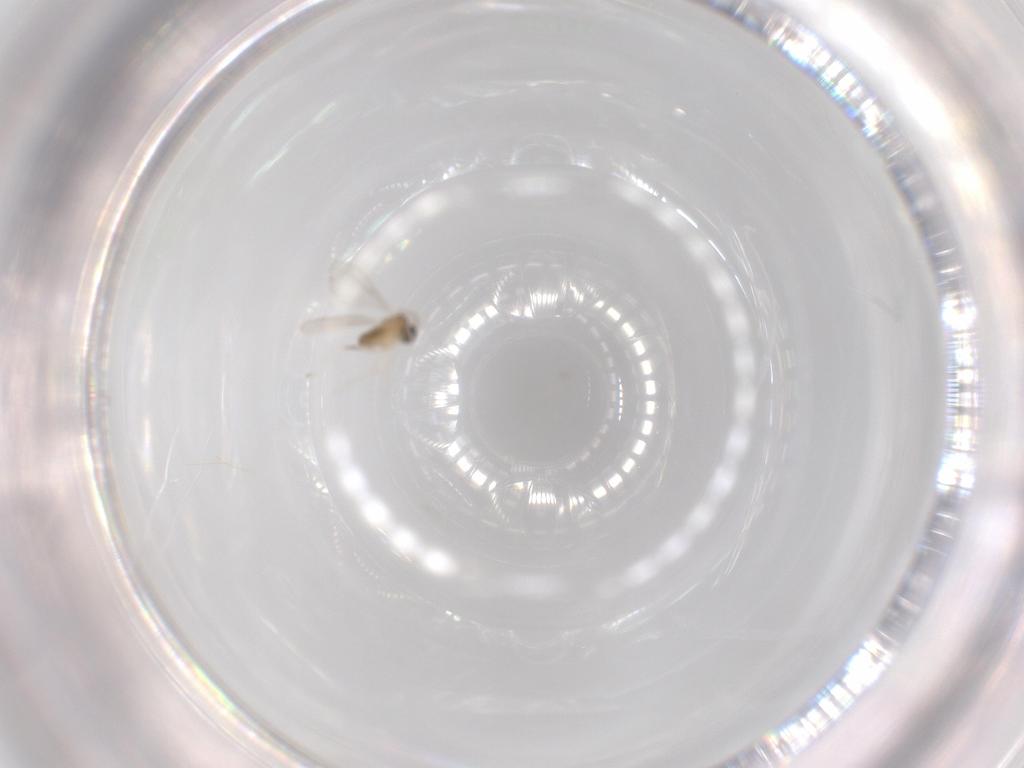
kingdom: Animalia
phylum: Arthropoda
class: Insecta
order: Diptera
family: Cecidomyiidae
